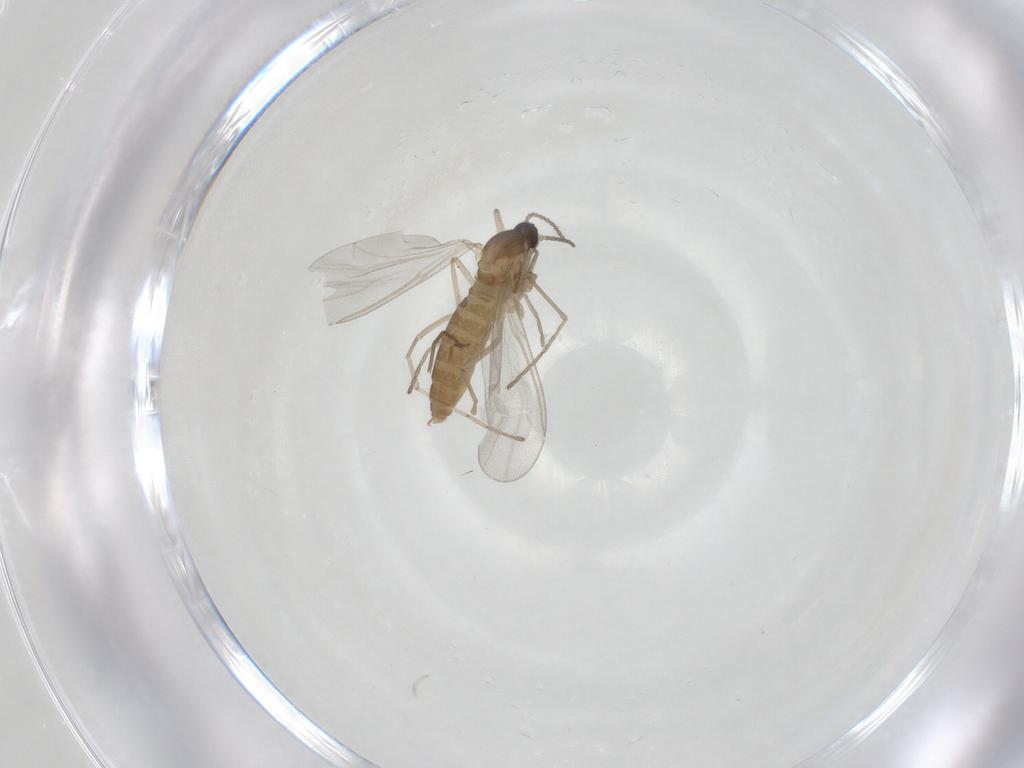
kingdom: Animalia
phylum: Arthropoda
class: Insecta
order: Diptera
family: Cecidomyiidae
